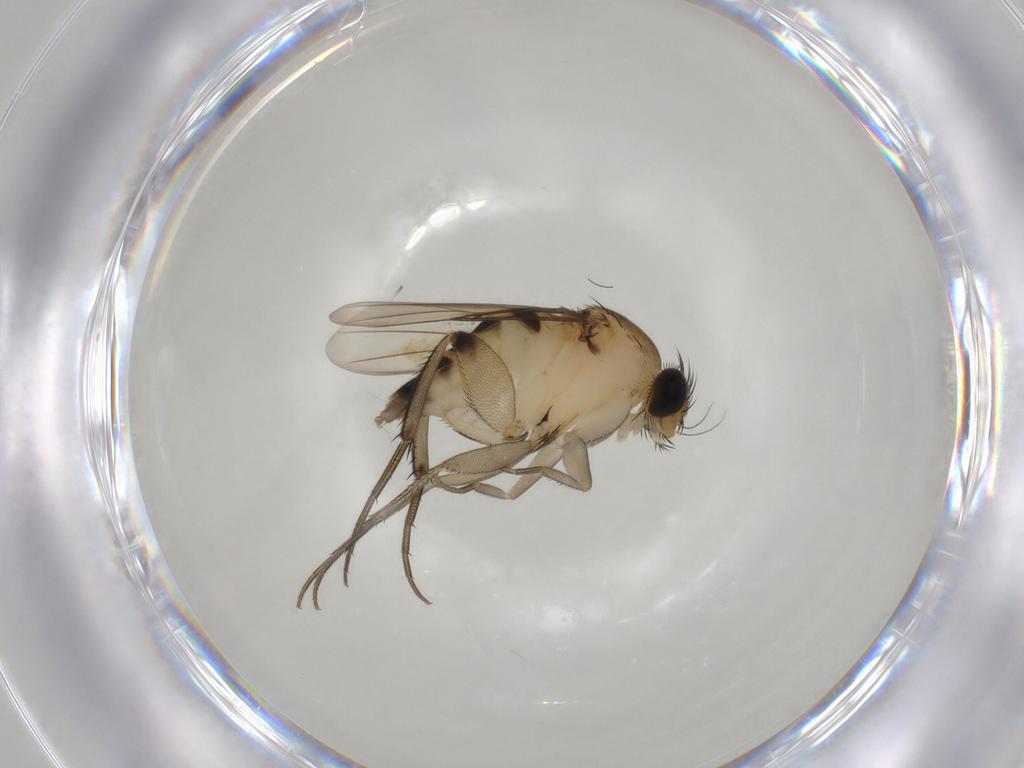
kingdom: Animalia
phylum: Arthropoda
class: Insecta
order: Diptera
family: Phoridae
